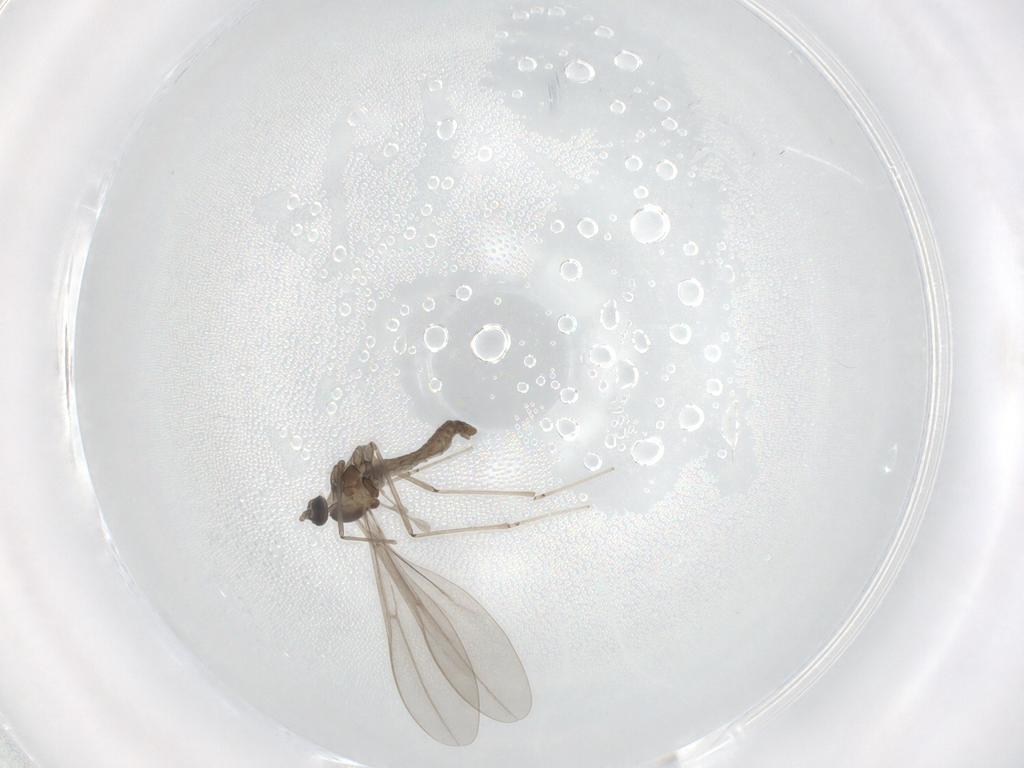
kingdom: Animalia
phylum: Arthropoda
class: Insecta
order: Diptera
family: Cecidomyiidae
